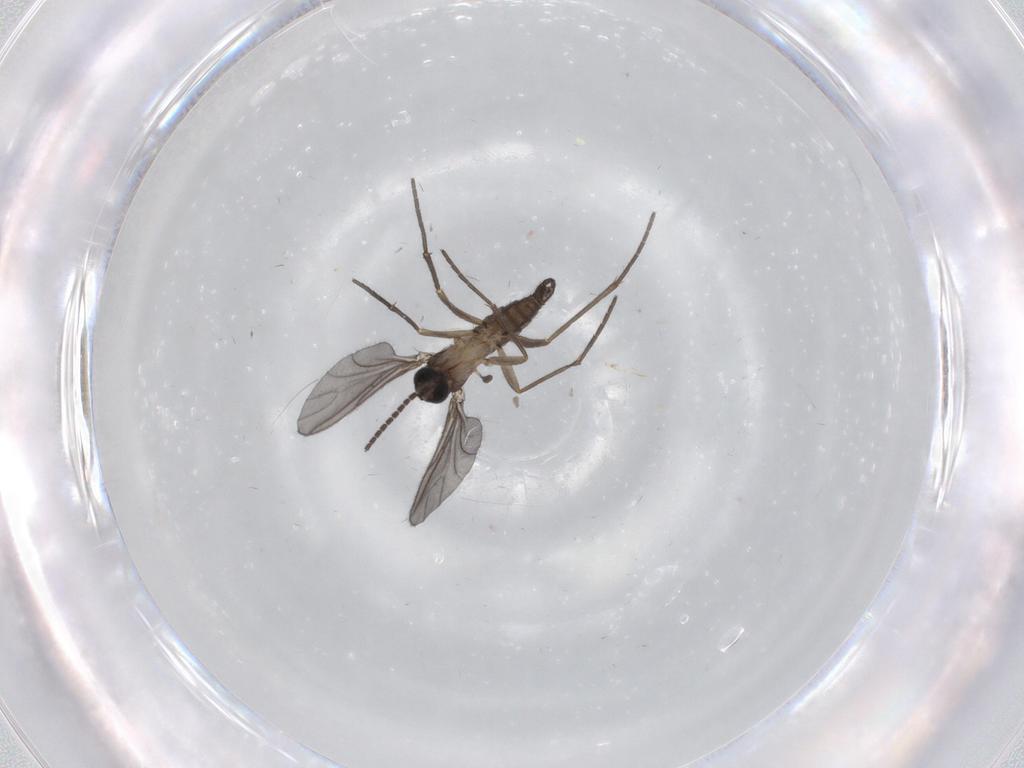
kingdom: Animalia
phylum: Arthropoda
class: Insecta
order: Diptera
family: Sciaridae
